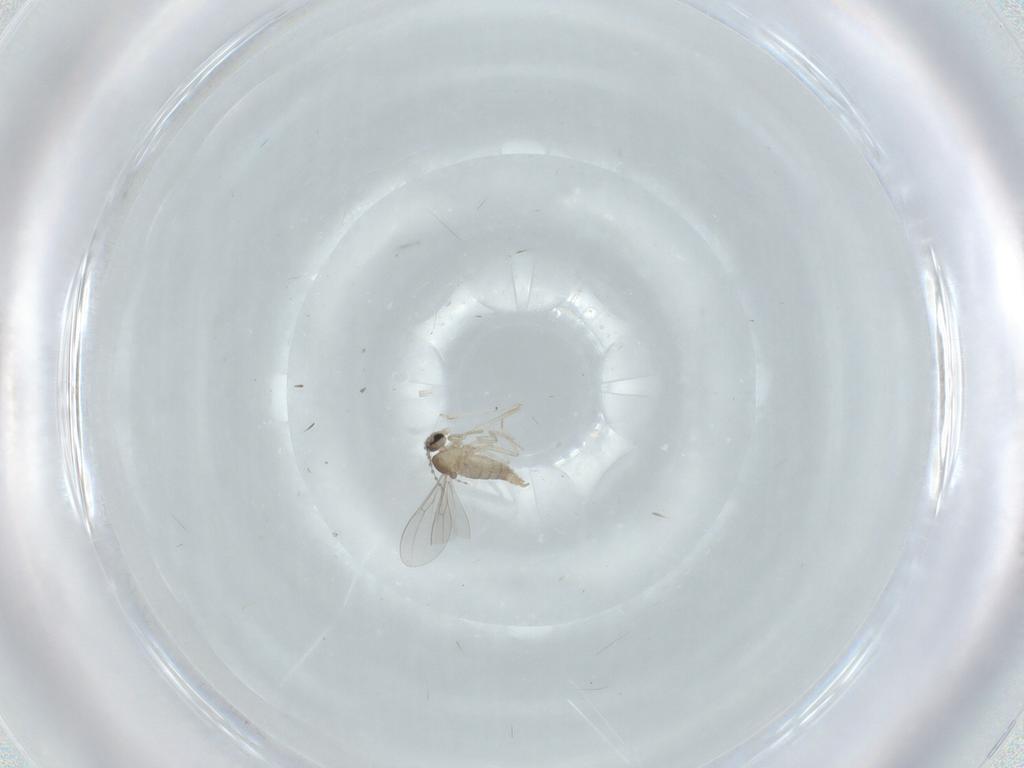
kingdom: Animalia
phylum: Arthropoda
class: Insecta
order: Diptera
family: Cecidomyiidae
